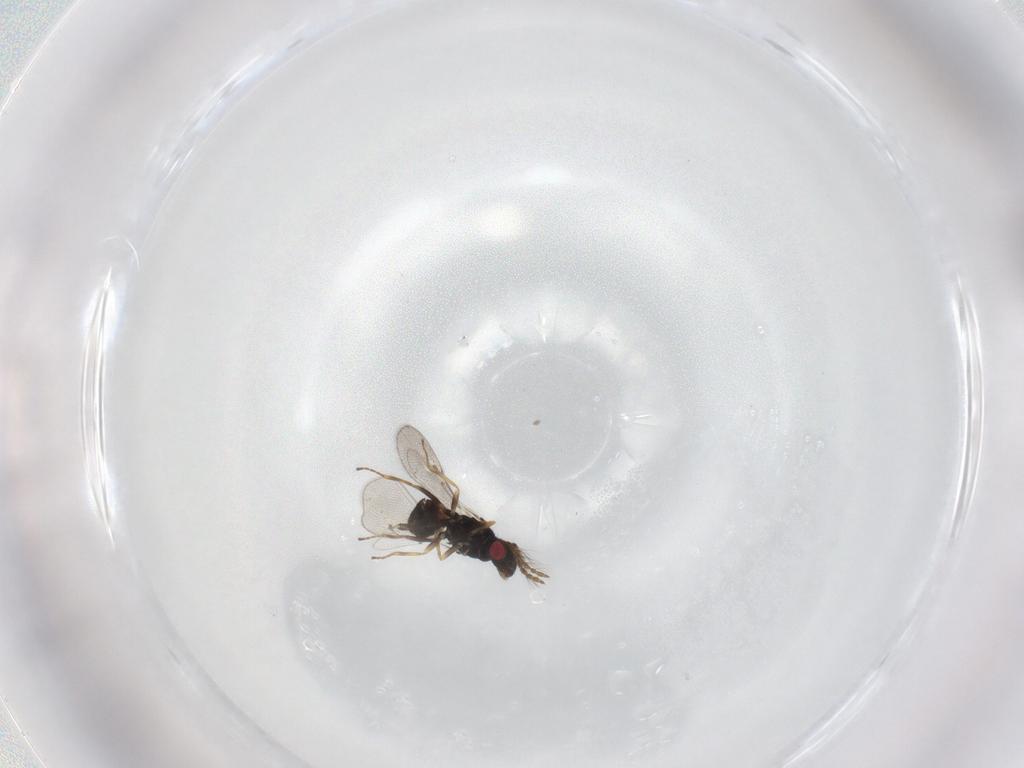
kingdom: Animalia
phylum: Arthropoda
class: Insecta
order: Hymenoptera
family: Eulophidae
